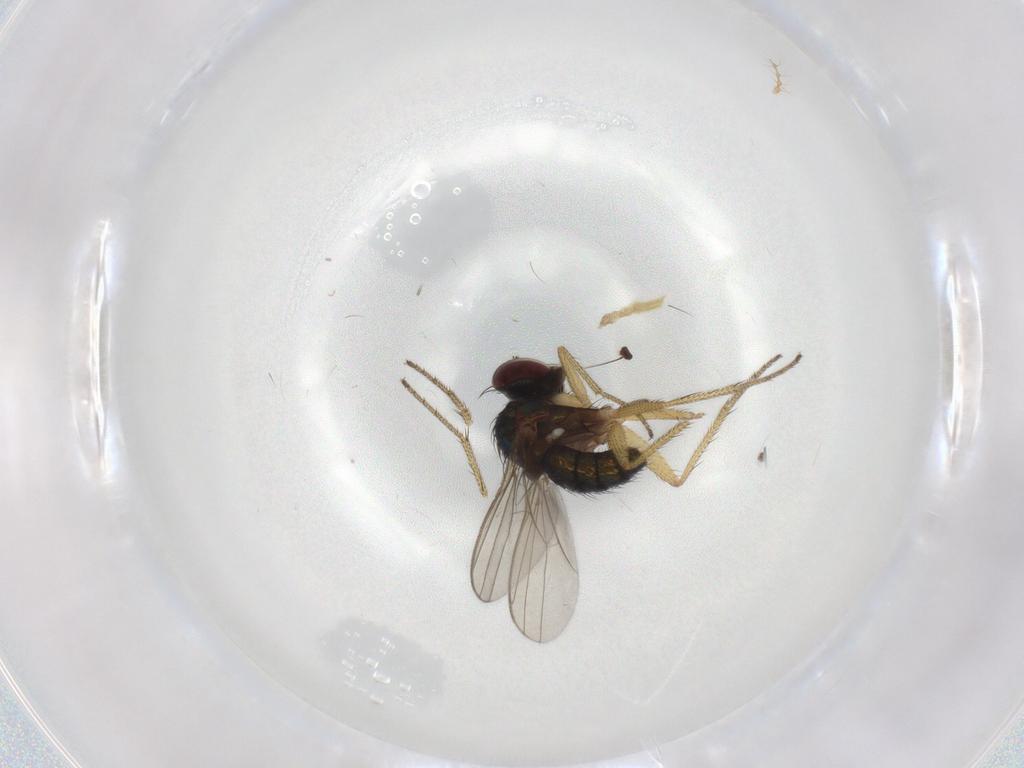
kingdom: Animalia
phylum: Arthropoda
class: Insecta
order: Diptera
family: Chironomidae
